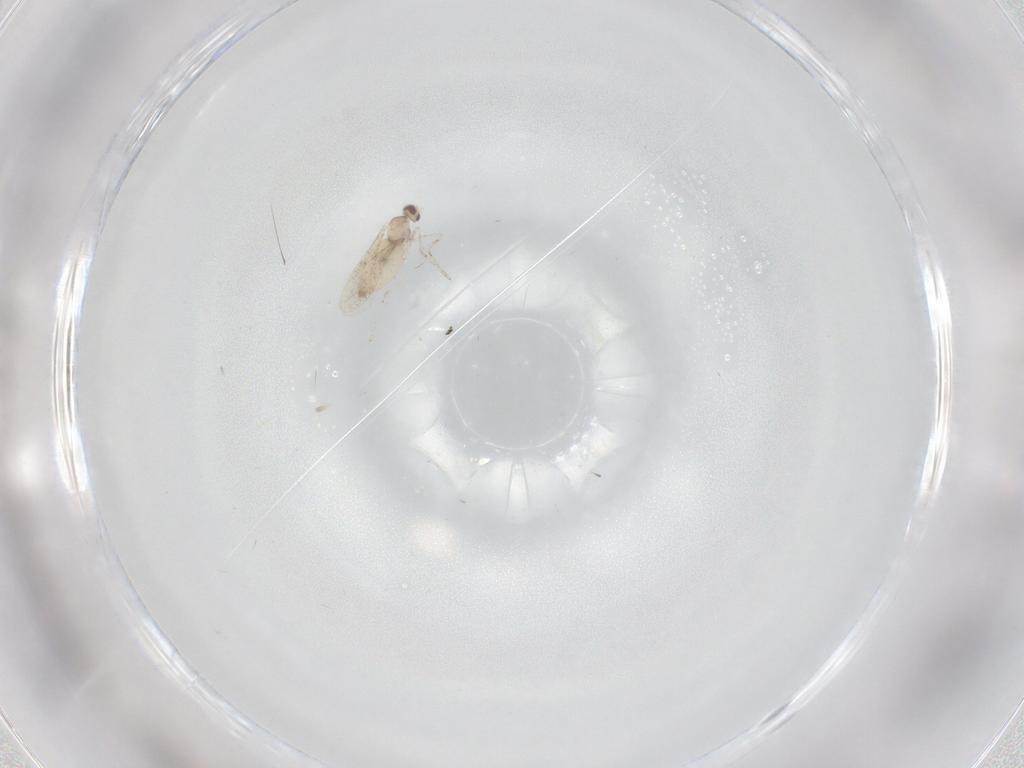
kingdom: Animalia
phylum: Arthropoda
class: Insecta
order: Diptera
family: Cecidomyiidae
